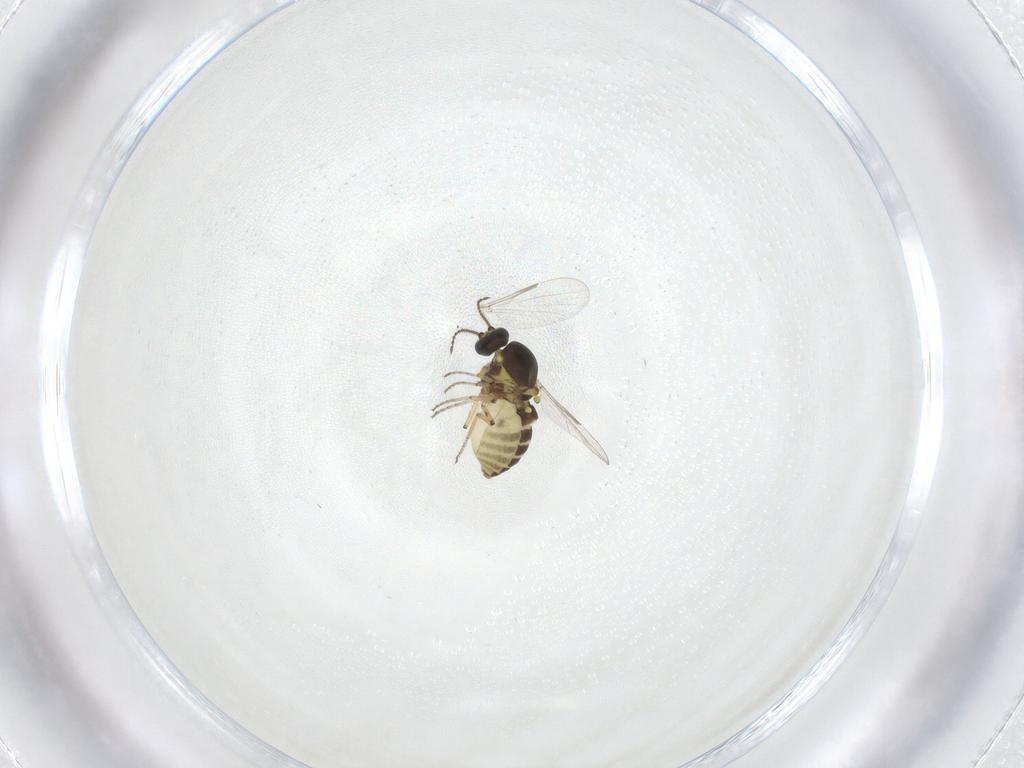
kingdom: Animalia
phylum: Arthropoda
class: Insecta
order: Diptera
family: Ceratopogonidae
